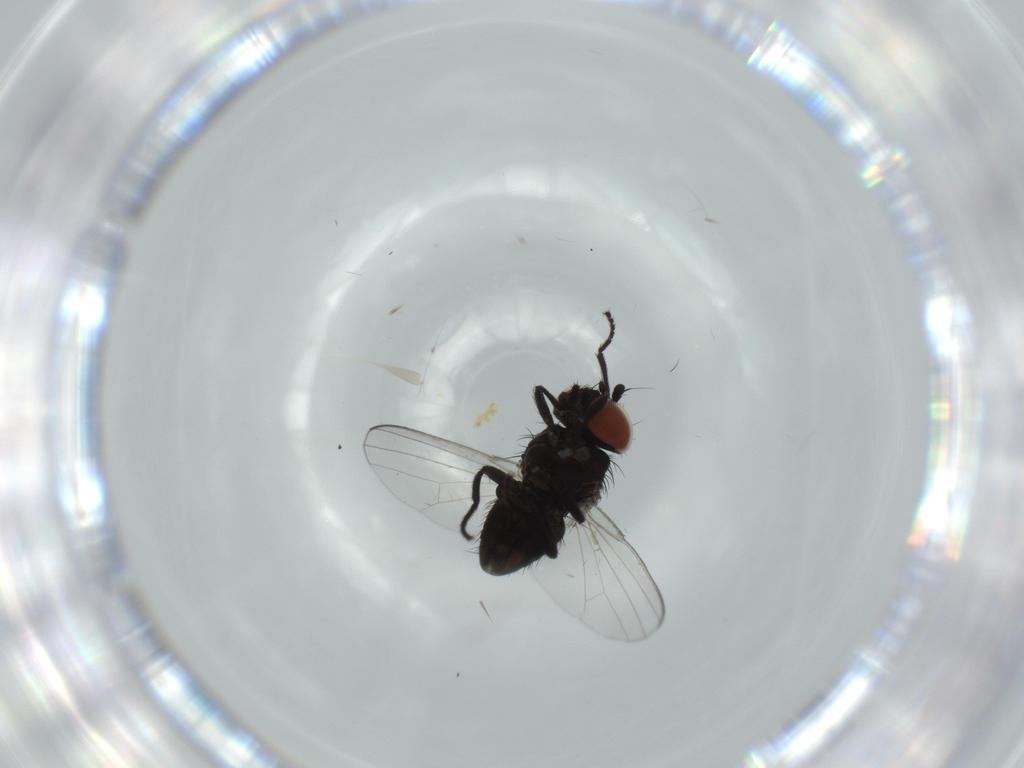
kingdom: Animalia
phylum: Arthropoda
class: Insecta
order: Diptera
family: Milichiidae
